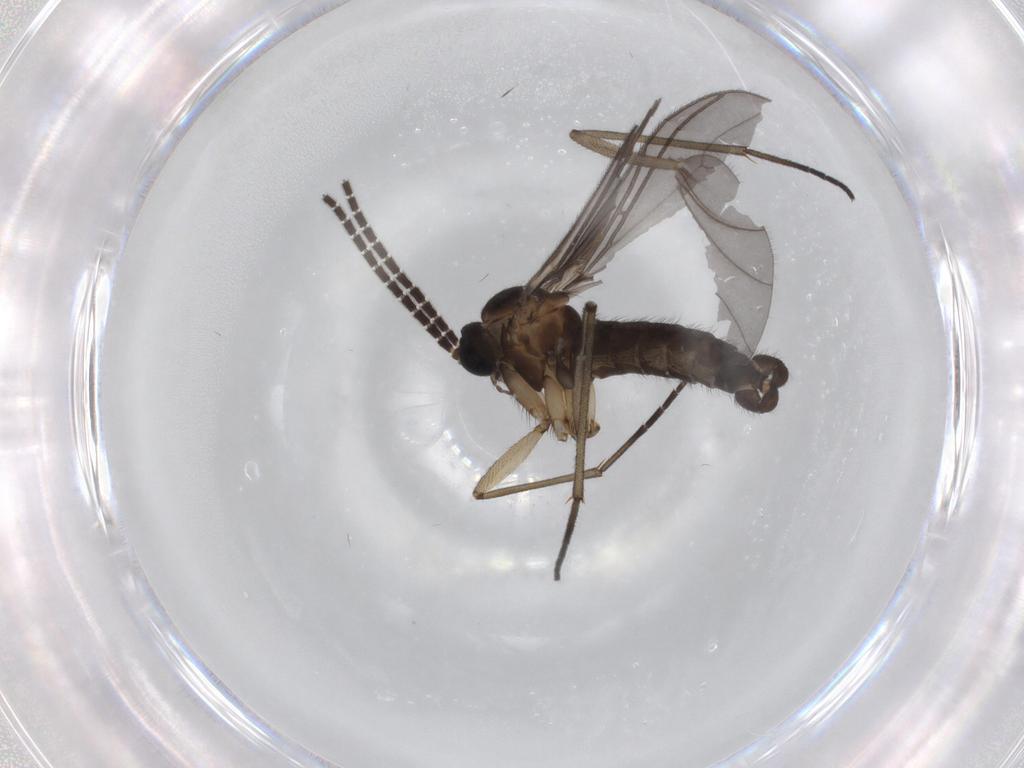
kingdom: Animalia
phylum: Arthropoda
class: Insecta
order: Diptera
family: Sciaridae
